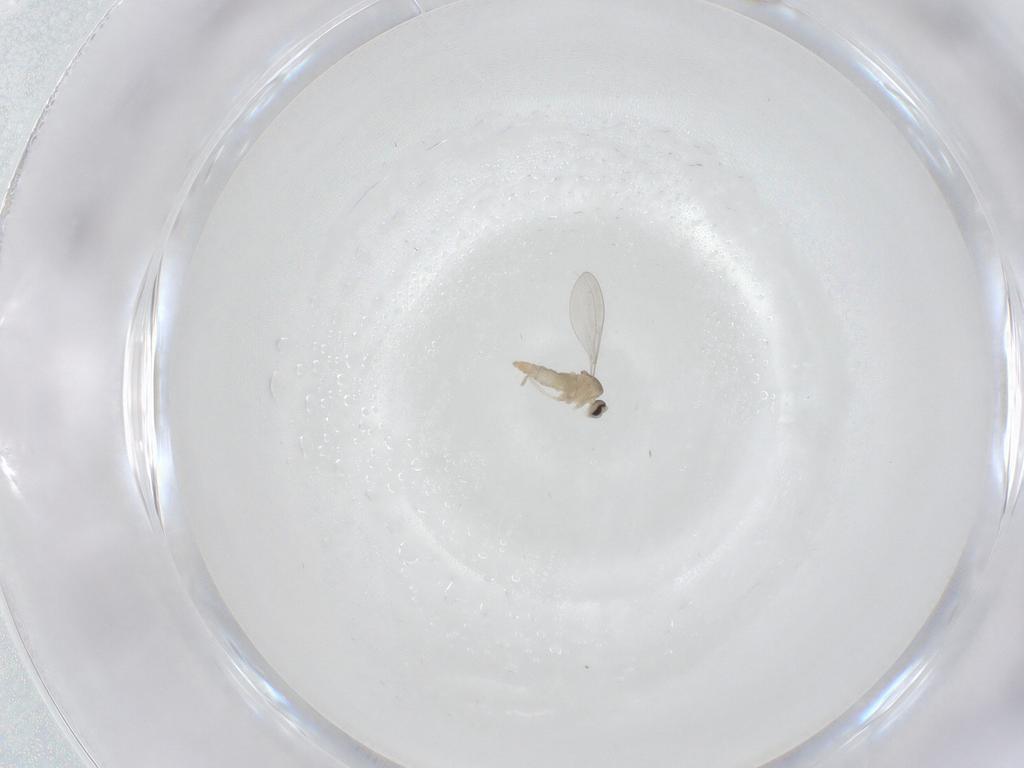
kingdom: Animalia
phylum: Arthropoda
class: Insecta
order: Diptera
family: Cecidomyiidae
